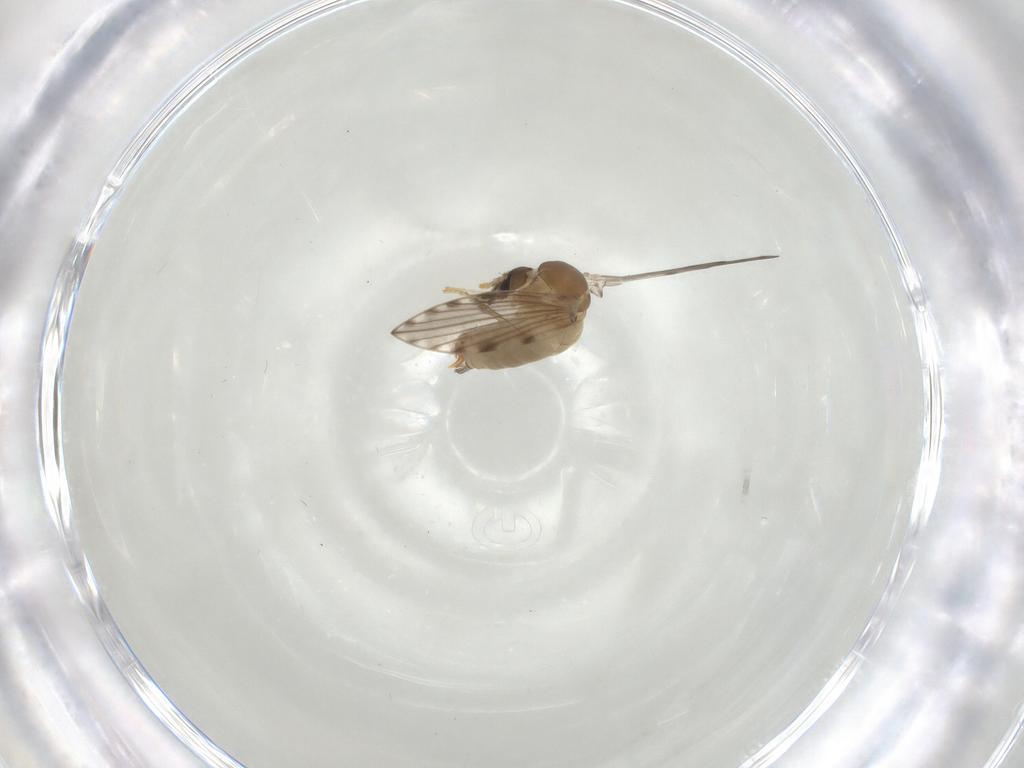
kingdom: Animalia
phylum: Arthropoda
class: Insecta
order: Diptera
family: Psychodidae
